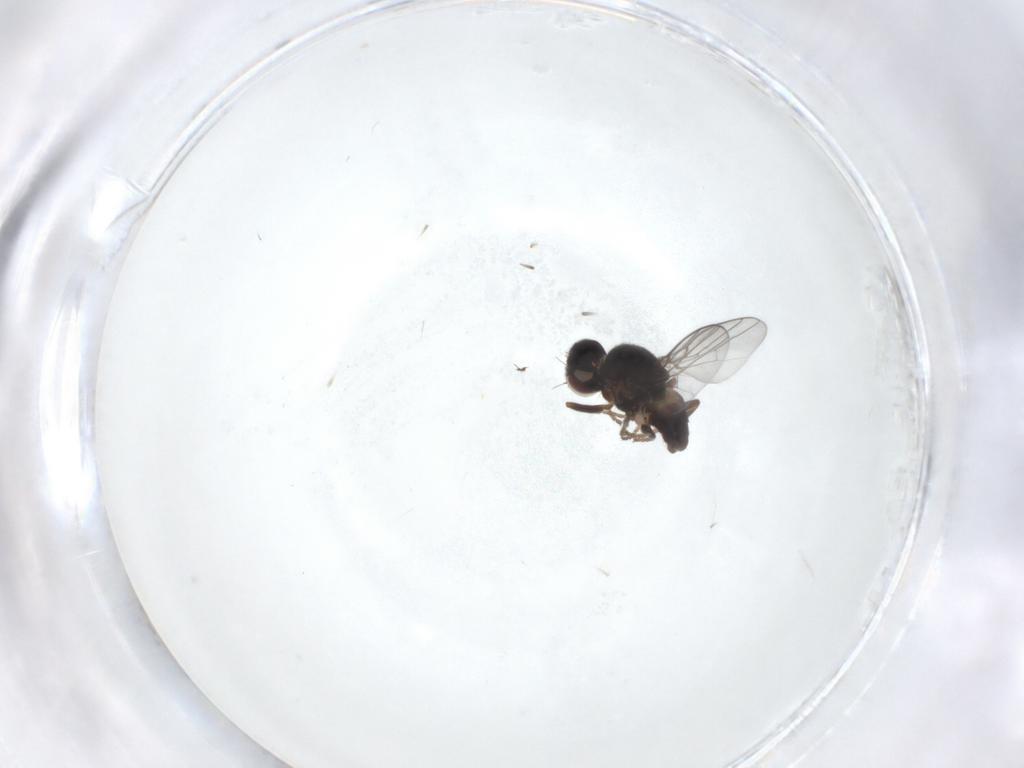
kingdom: Animalia
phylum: Arthropoda
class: Insecta
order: Diptera
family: Chloropidae
